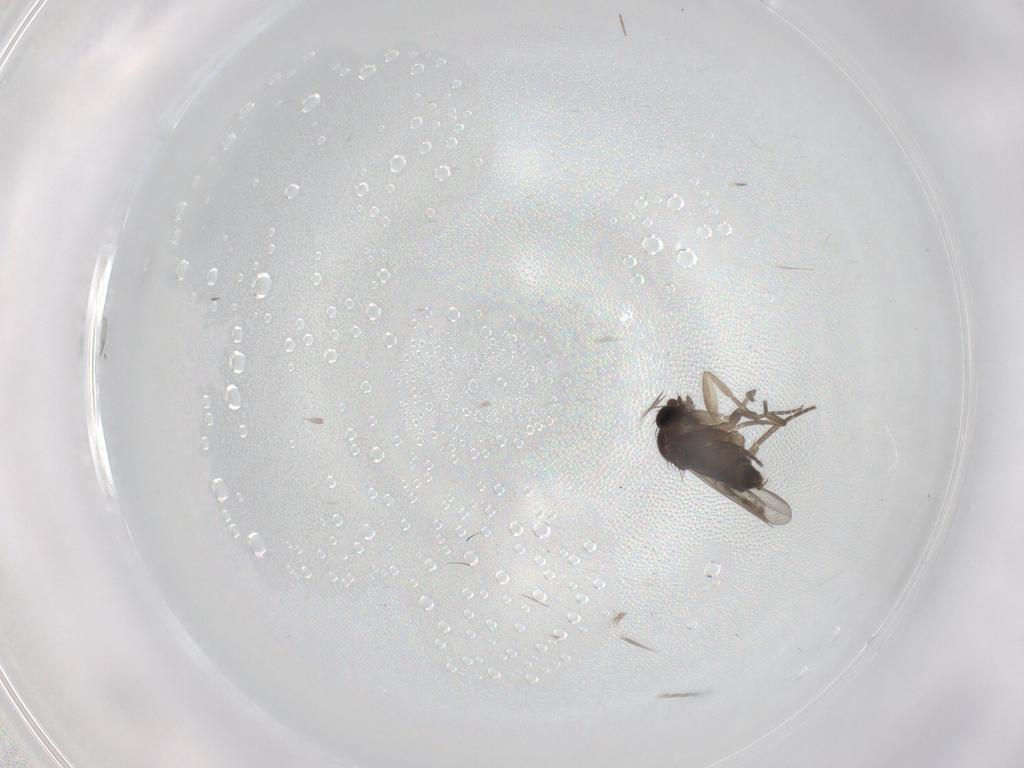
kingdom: Animalia
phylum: Arthropoda
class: Insecta
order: Diptera
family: Phoridae
